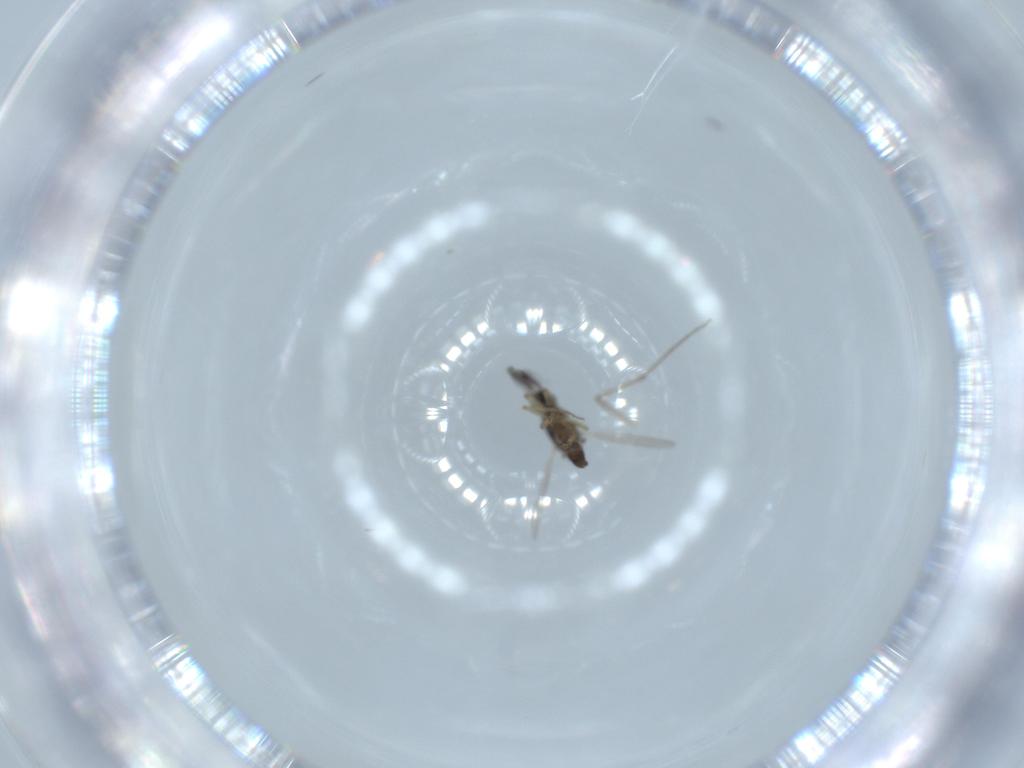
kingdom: Animalia
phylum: Arthropoda
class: Insecta
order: Diptera
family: Ceratopogonidae
